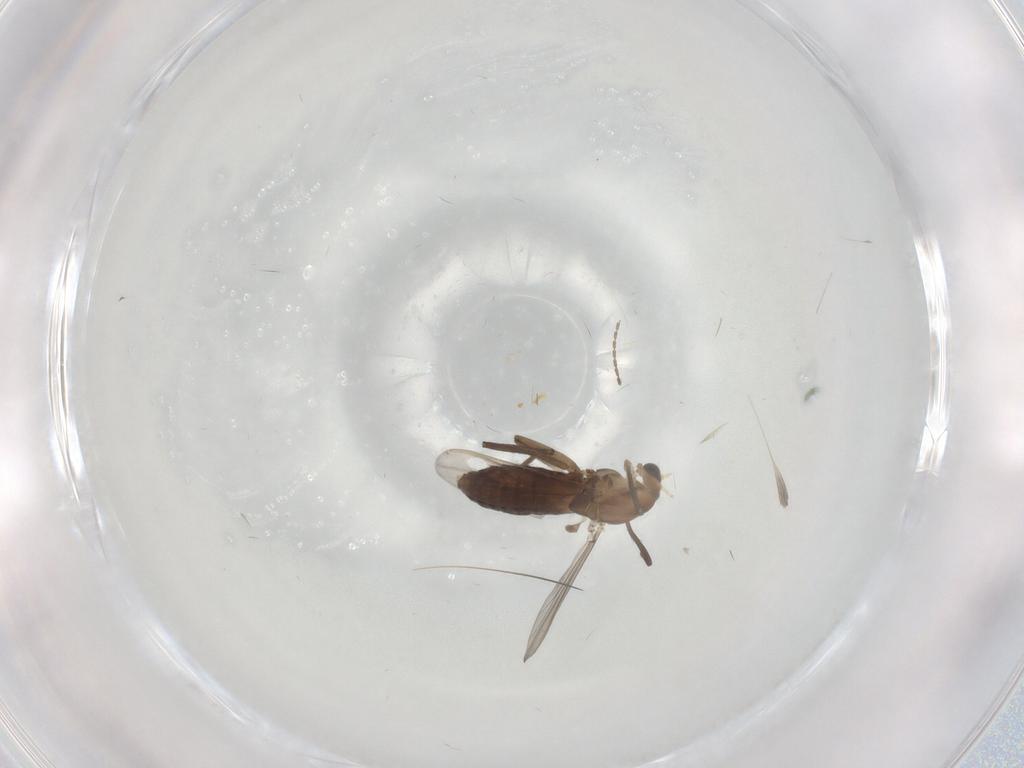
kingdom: Animalia
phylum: Arthropoda
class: Insecta
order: Diptera
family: Chironomidae
